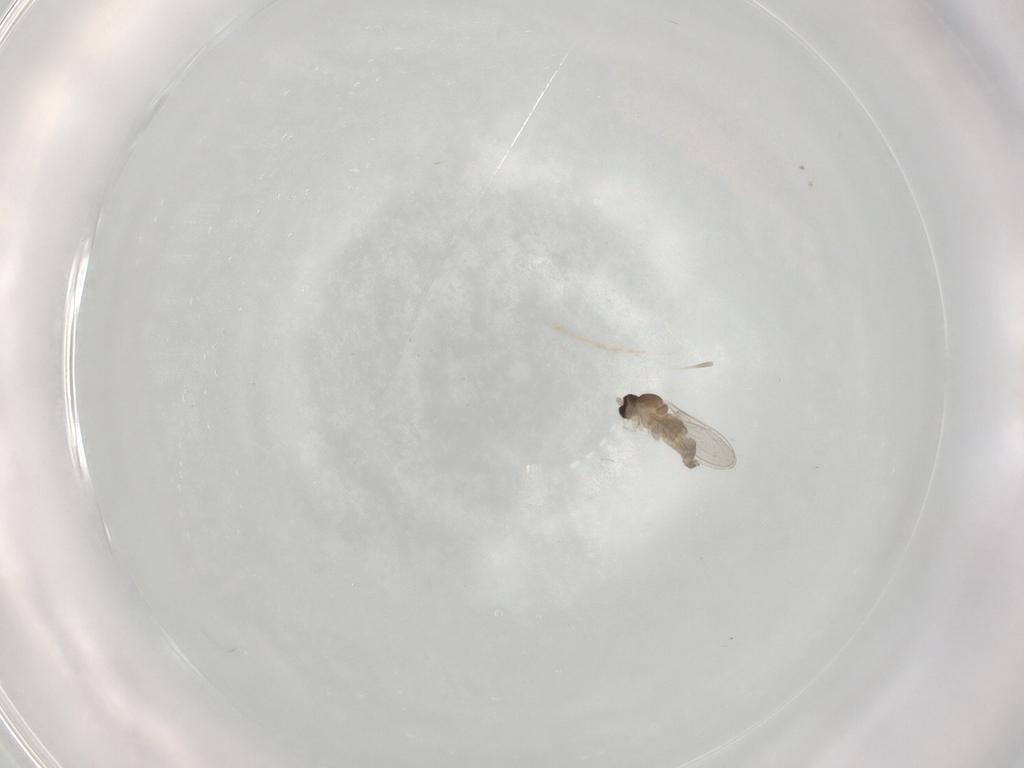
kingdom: Animalia
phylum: Arthropoda
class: Insecta
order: Diptera
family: Cecidomyiidae
